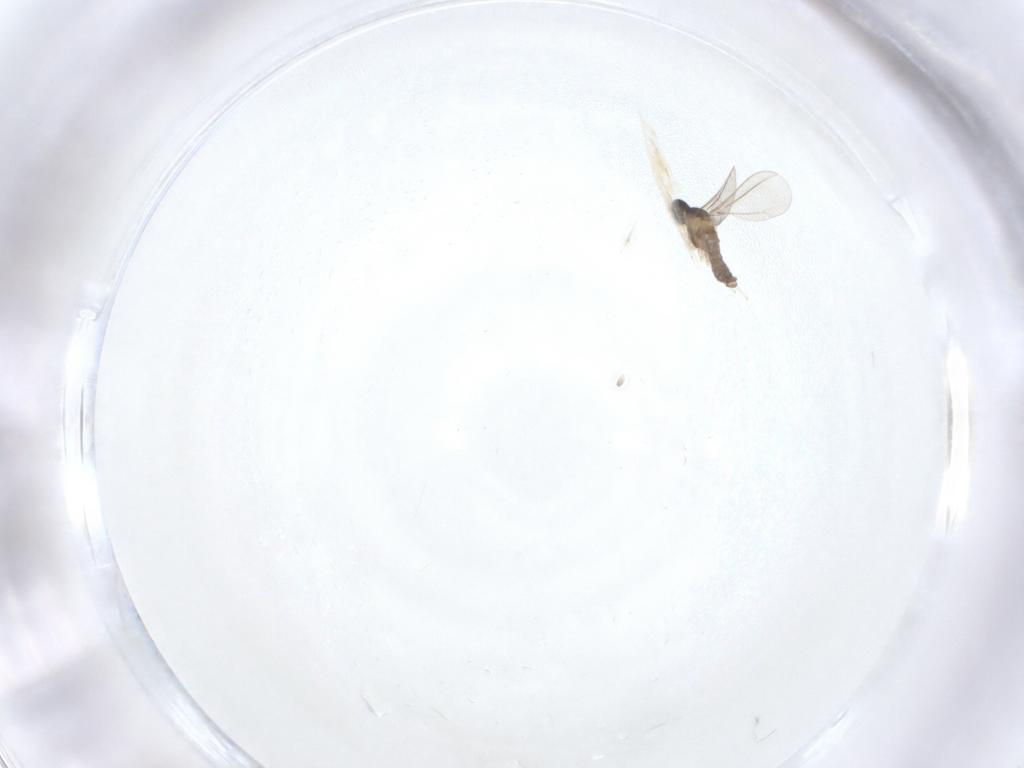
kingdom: Animalia
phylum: Arthropoda
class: Insecta
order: Diptera
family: Cecidomyiidae
